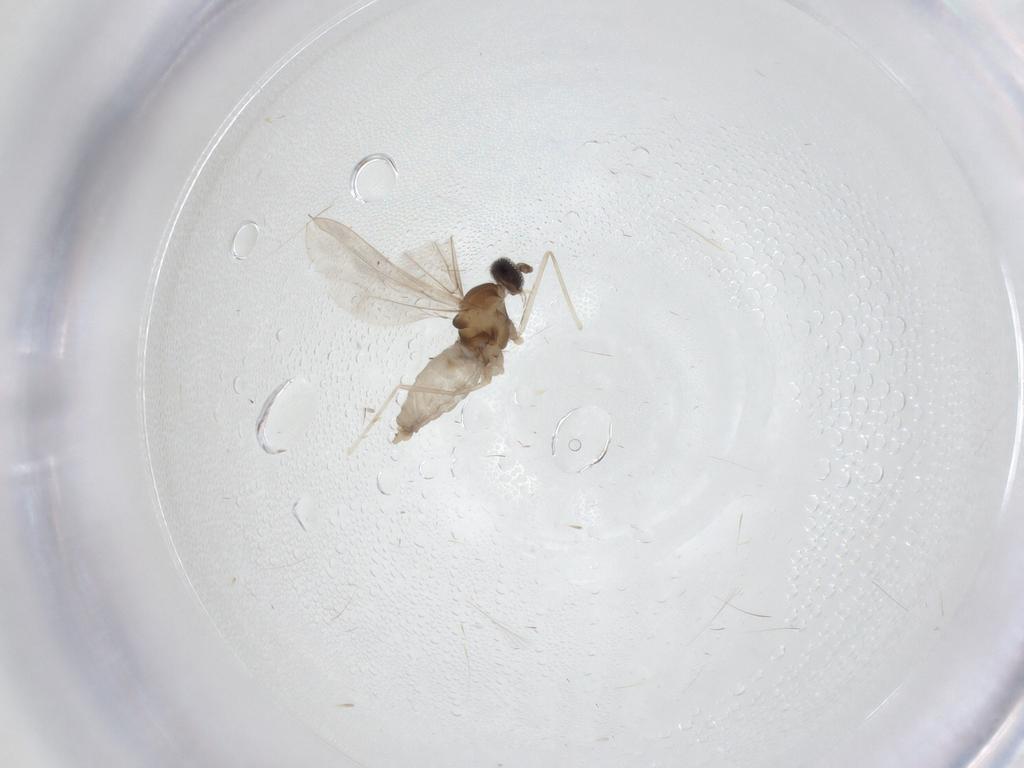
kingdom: Animalia
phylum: Arthropoda
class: Insecta
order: Diptera
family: Cecidomyiidae
